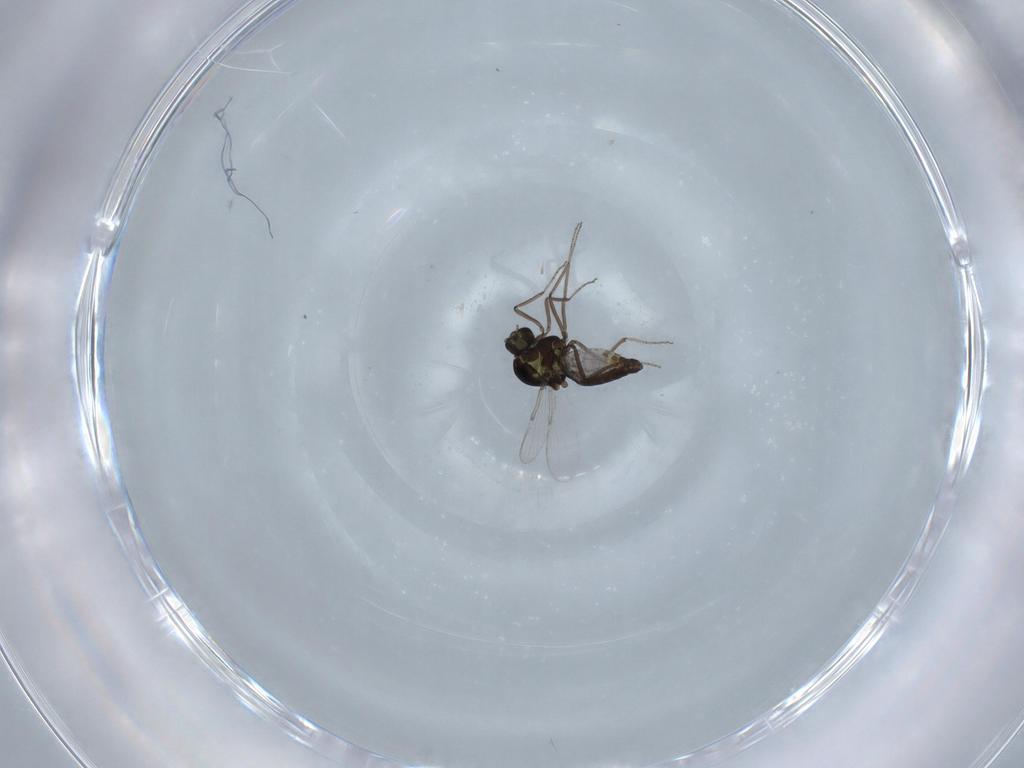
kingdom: Animalia
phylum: Arthropoda
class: Insecta
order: Diptera
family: Ceratopogonidae
